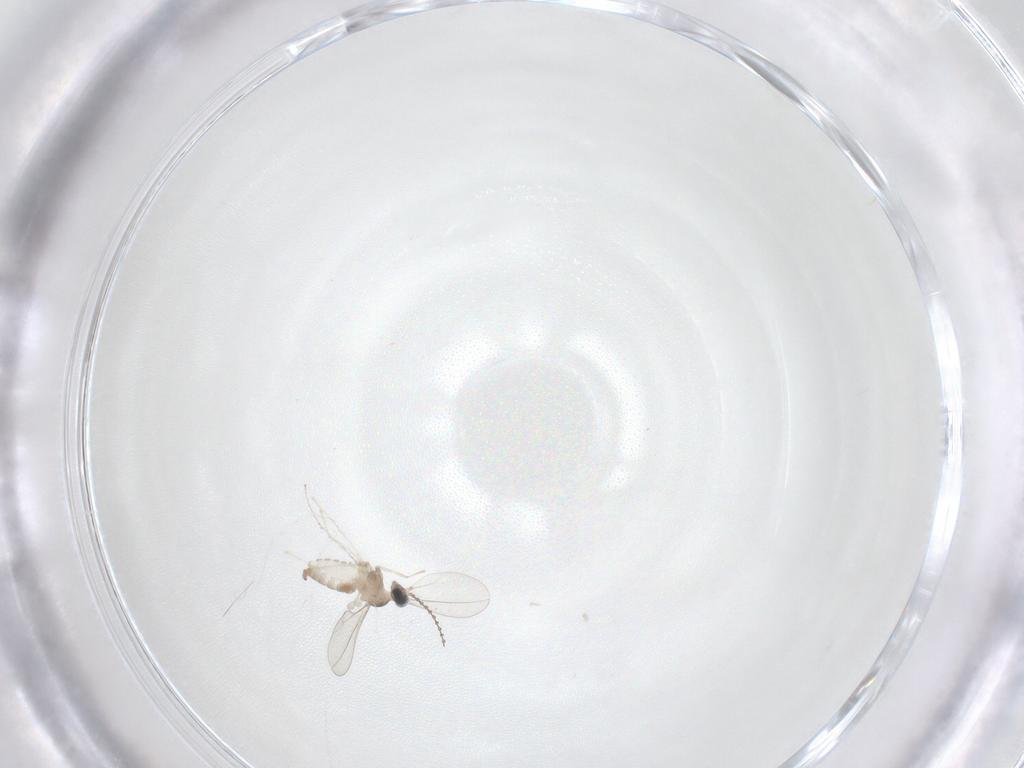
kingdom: Animalia
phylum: Arthropoda
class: Insecta
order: Diptera
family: Cecidomyiidae
